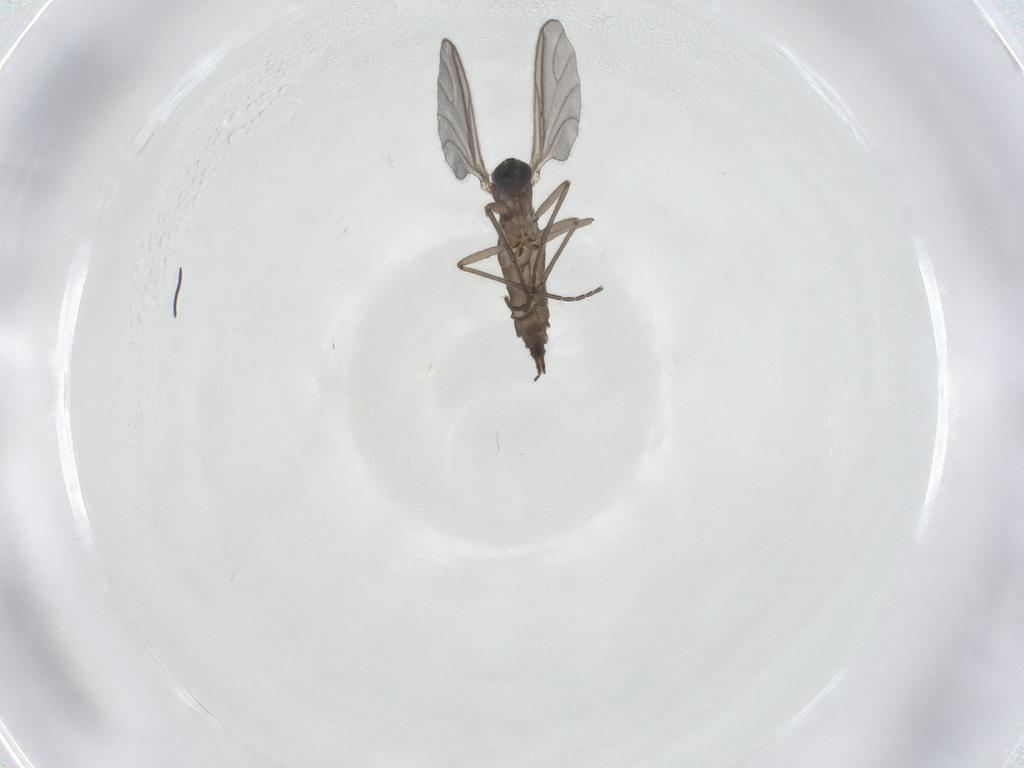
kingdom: Animalia
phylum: Arthropoda
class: Insecta
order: Diptera
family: Sciaridae
